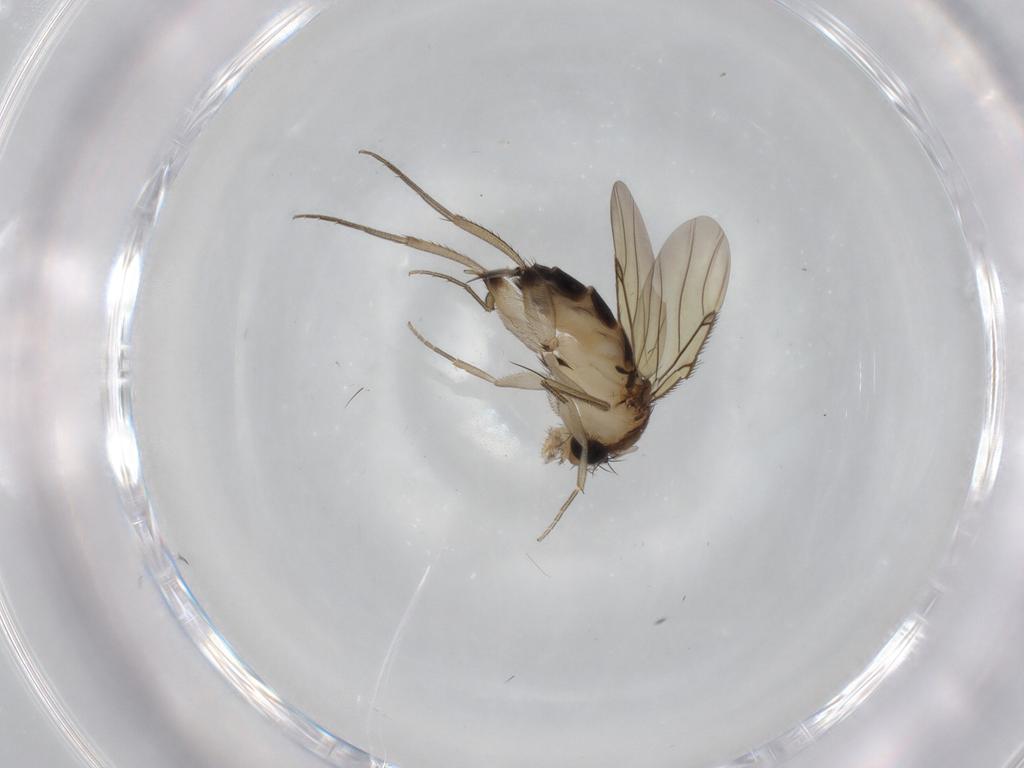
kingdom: Animalia
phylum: Arthropoda
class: Insecta
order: Diptera
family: Phoridae
